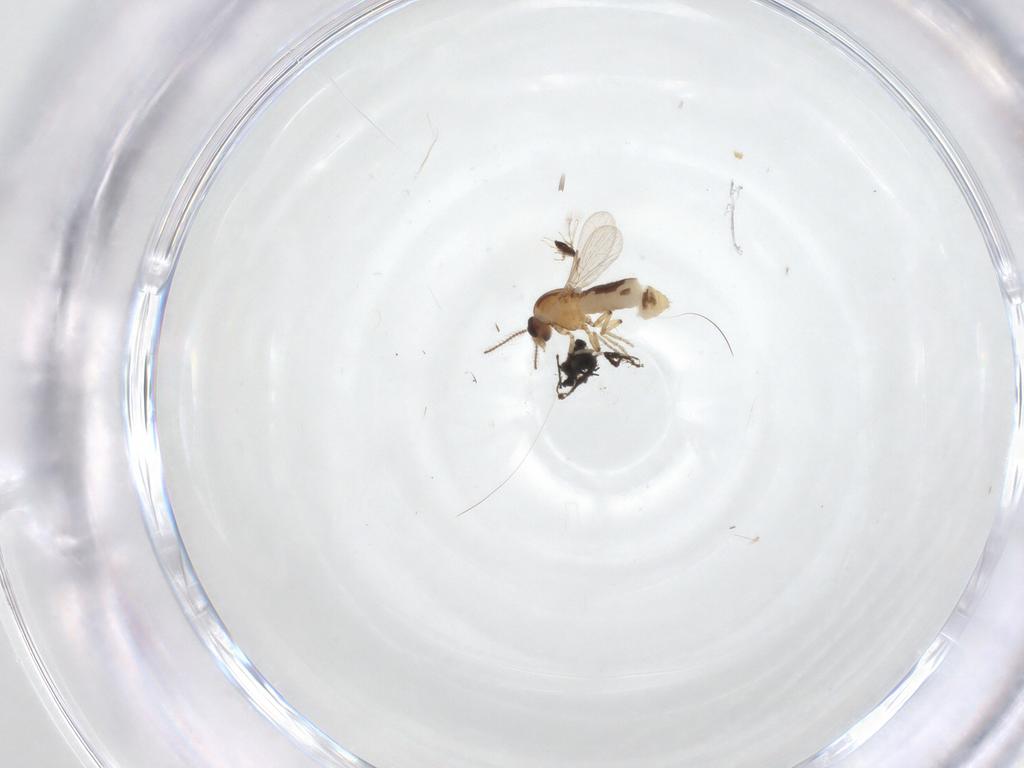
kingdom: Animalia
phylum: Arthropoda
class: Insecta
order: Diptera
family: Ceratopogonidae
